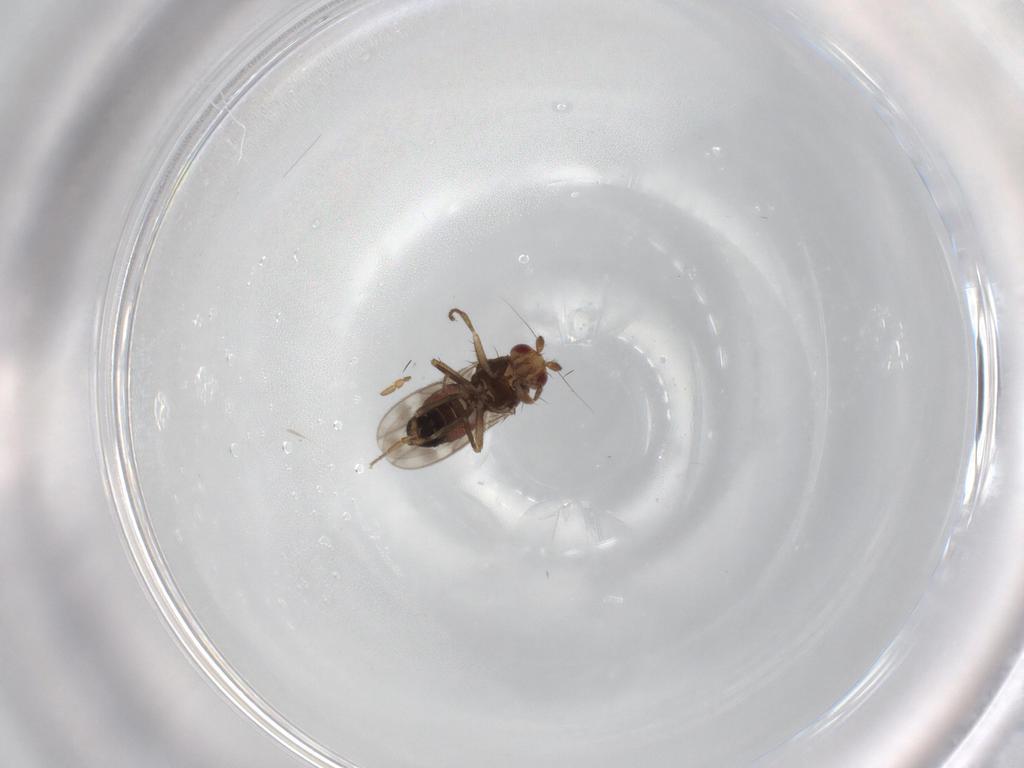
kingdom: Animalia
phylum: Arthropoda
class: Insecta
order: Diptera
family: Sphaeroceridae
